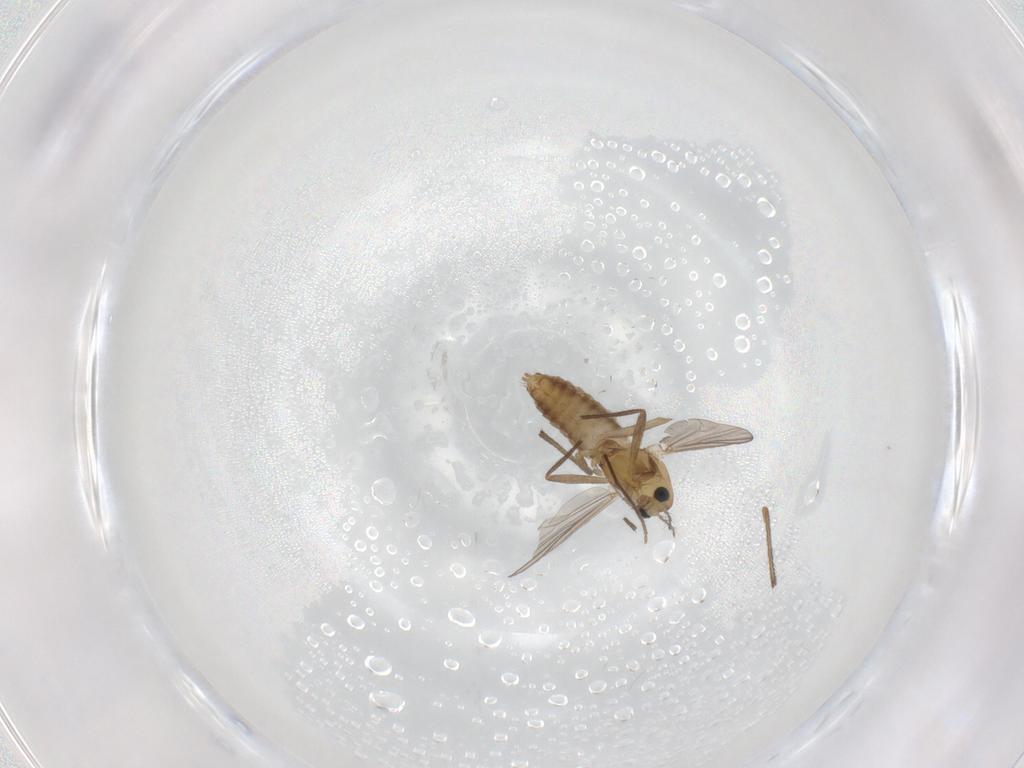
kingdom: Animalia
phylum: Arthropoda
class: Insecta
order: Diptera
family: Chironomidae
